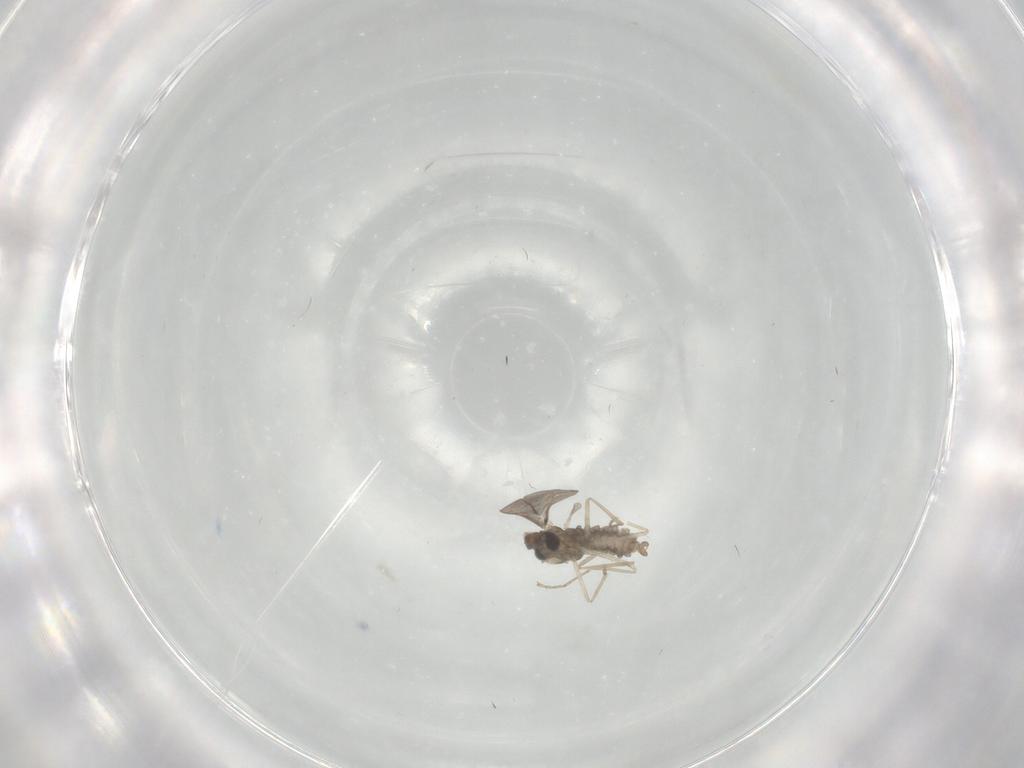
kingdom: Animalia
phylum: Arthropoda
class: Insecta
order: Diptera
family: Cecidomyiidae
